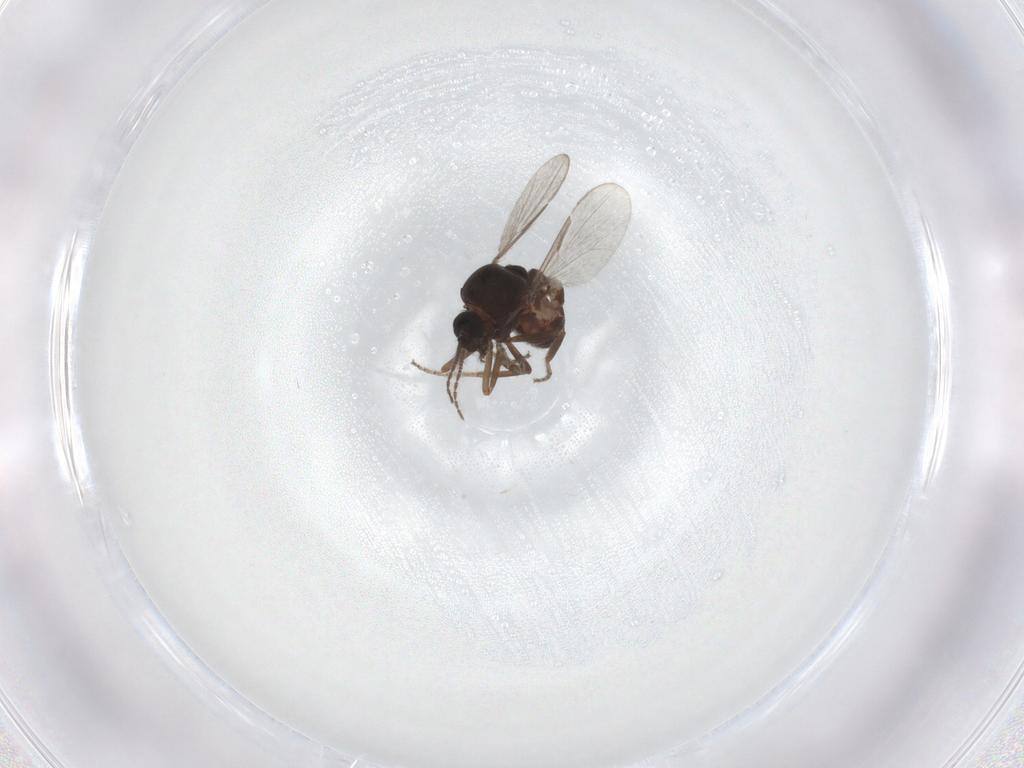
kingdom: Animalia
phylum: Arthropoda
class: Insecta
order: Diptera
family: Ceratopogonidae
